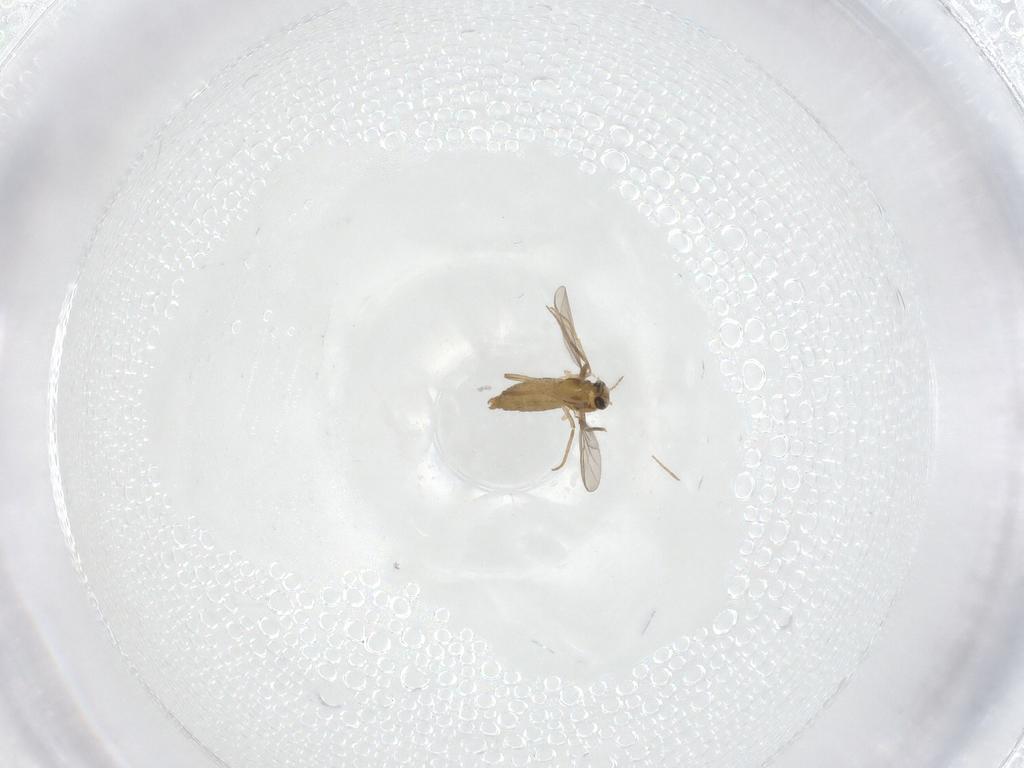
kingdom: Animalia
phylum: Arthropoda
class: Insecta
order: Diptera
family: Chironomidae
